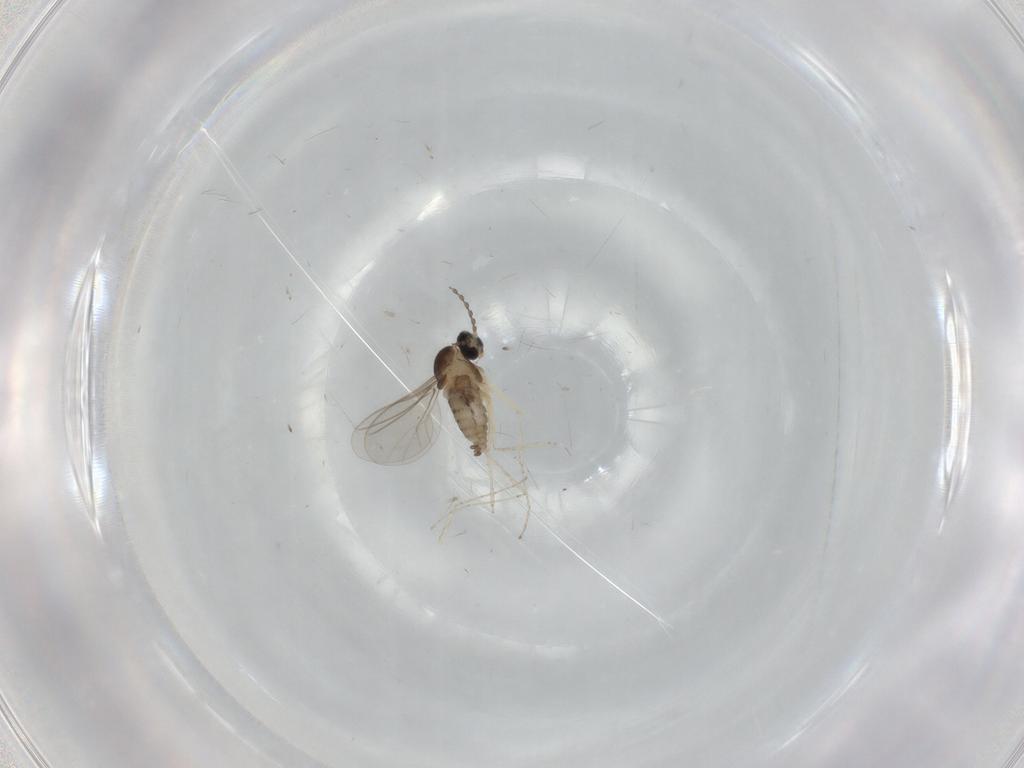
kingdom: Animalia
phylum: Arthropoda
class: Insecta
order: Diptera
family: Cecidomyiidae
